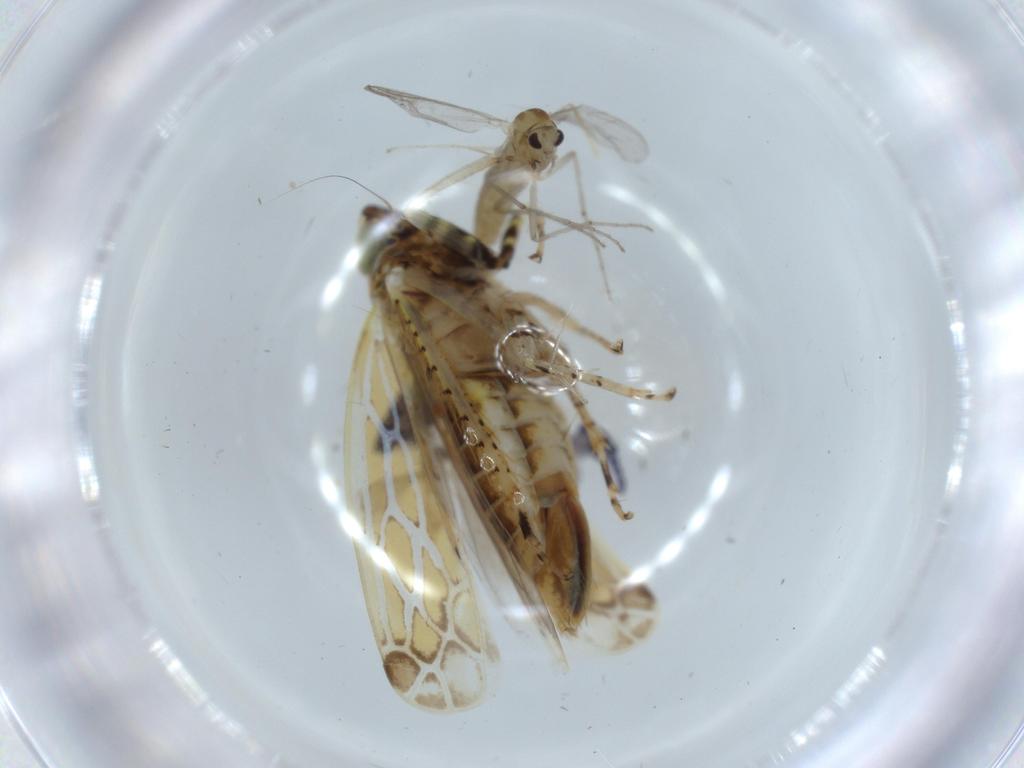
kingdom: Animalia
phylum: Arthropoda
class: Insecta
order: Hemiptera
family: Cicadellidae
